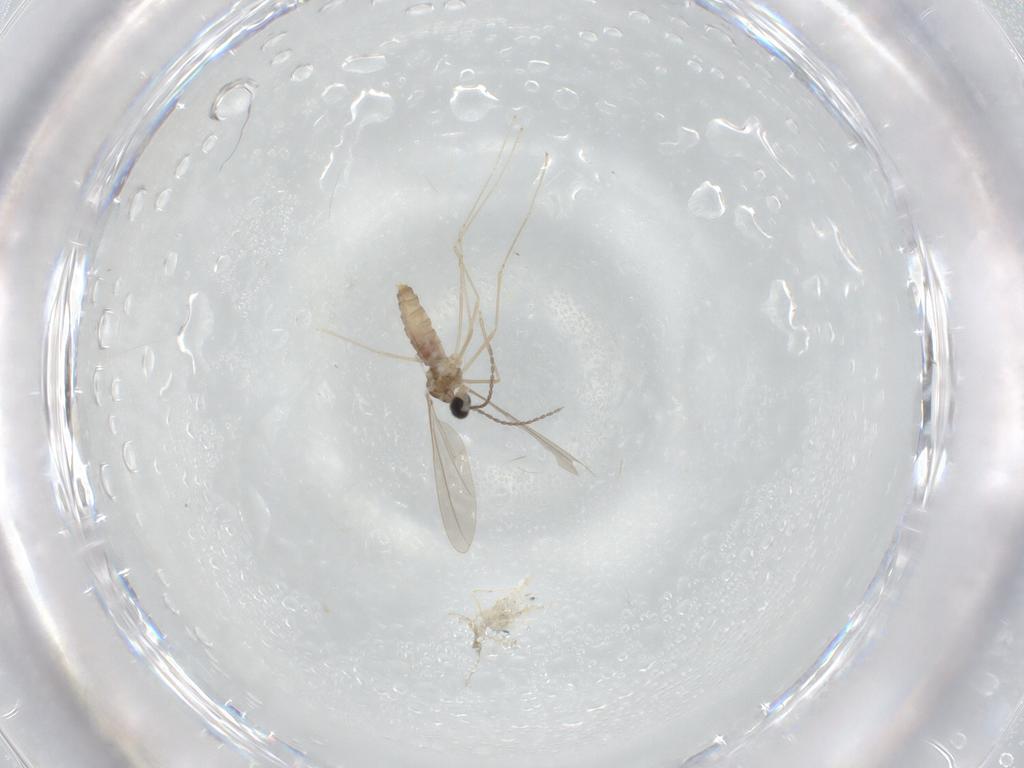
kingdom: Animalia
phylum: Arthropoda
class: Insecta
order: Diptera
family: Cecidomyiidae
